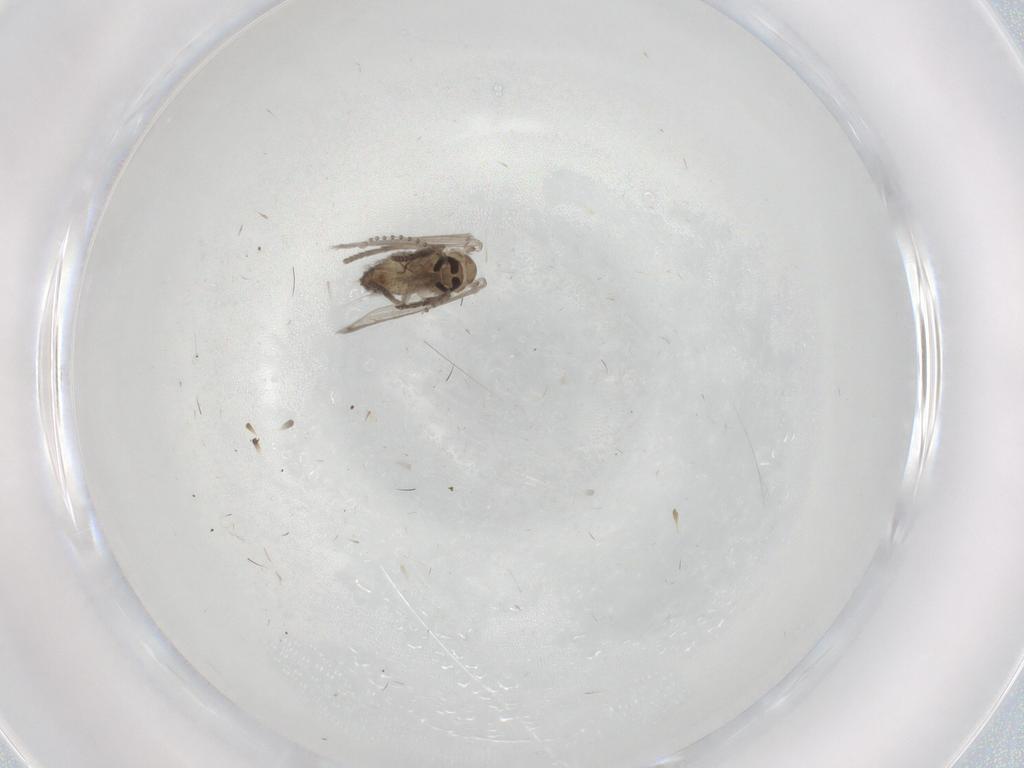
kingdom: Animalia
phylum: Arthropoda
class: Insecta
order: Diptera
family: Psychodidae
